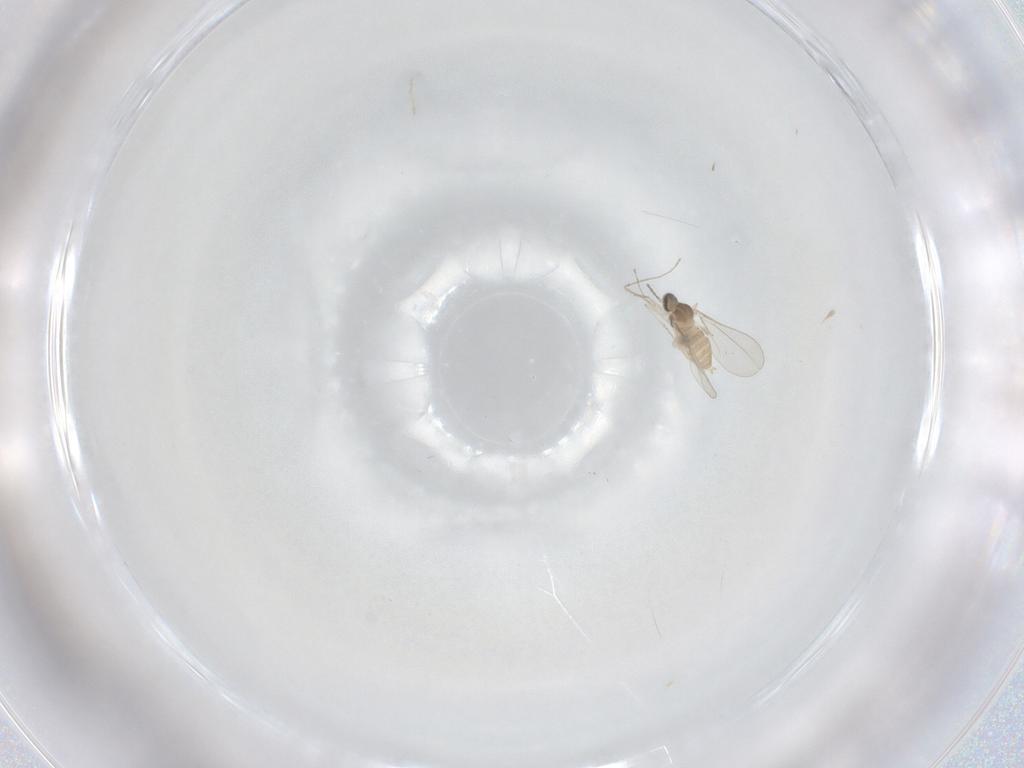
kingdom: Animalia
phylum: Arthropoda
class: Insecta
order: Diptera
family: Cecidomyiidae
